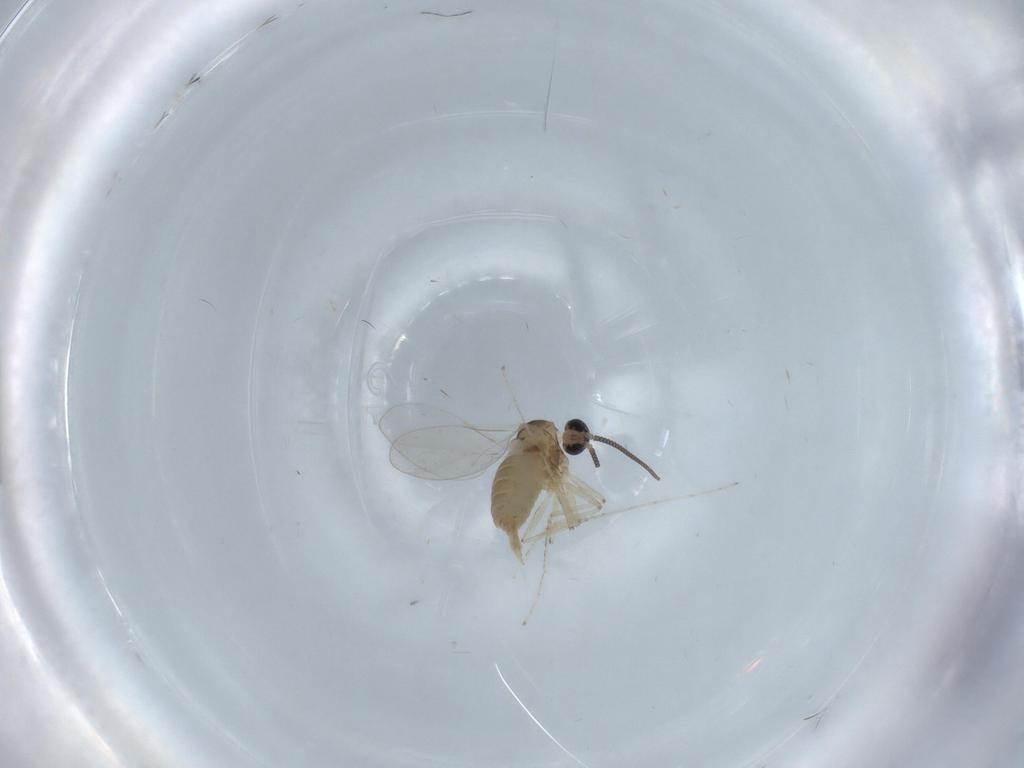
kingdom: Animalia
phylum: Arthropoda
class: Insecta
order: Diptera
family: Cecidomyiidae
